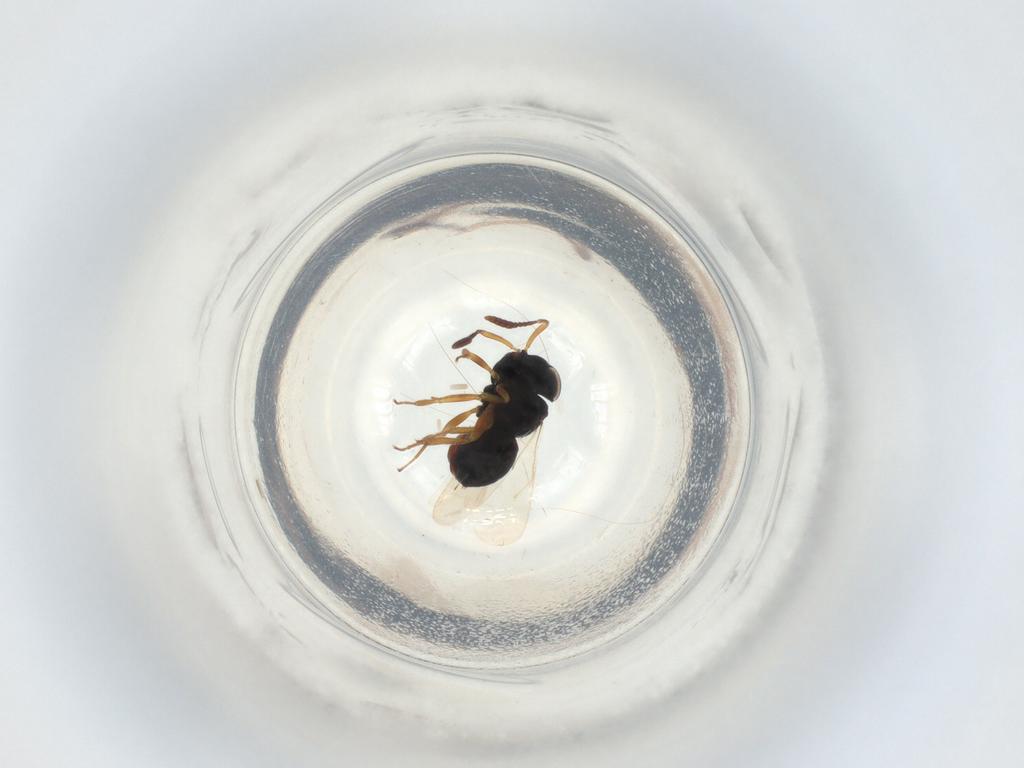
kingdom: Animalia
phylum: Arthropoda
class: Insecta
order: Hymenoptera
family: Scelionidae
